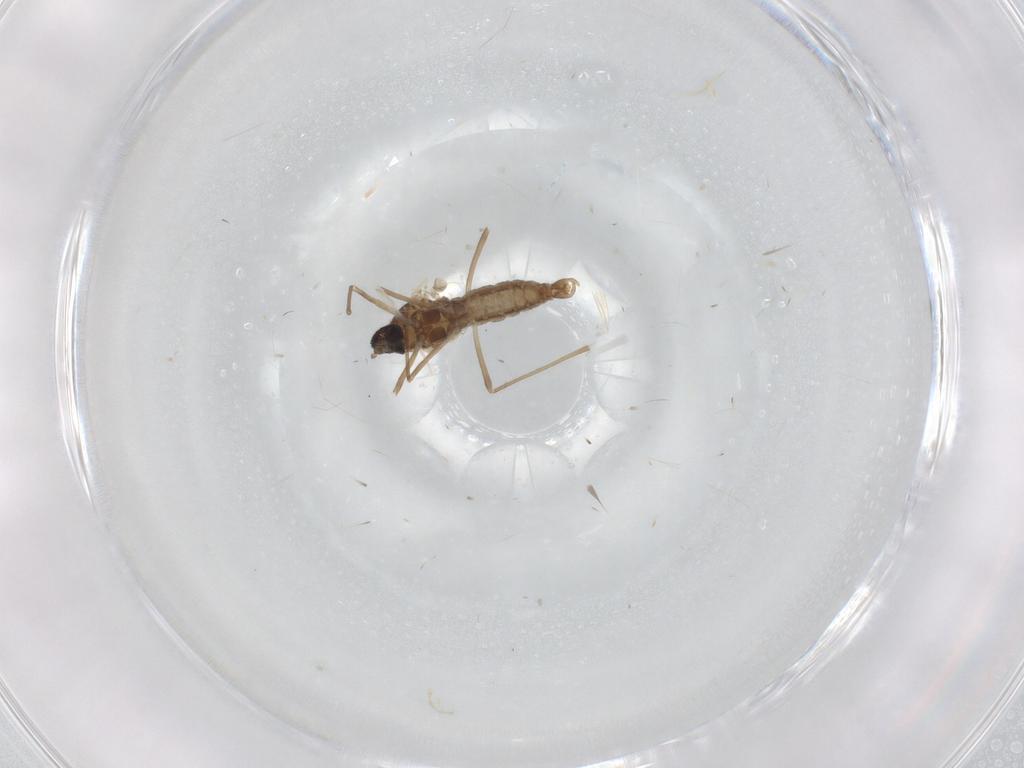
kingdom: Animalia
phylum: Arthropoda
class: Insecta
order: Diptera
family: Cecidomyiidae
